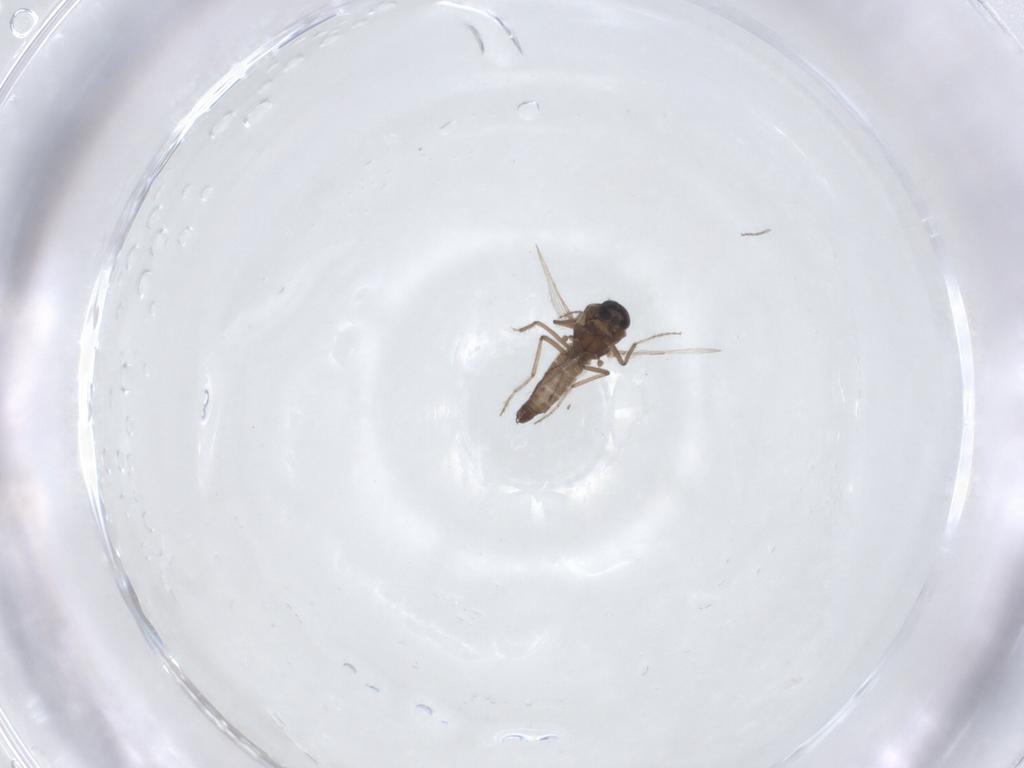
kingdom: Animalia
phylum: Arthropoda
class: Insecta
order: Diptera
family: Ceratopogonidae
